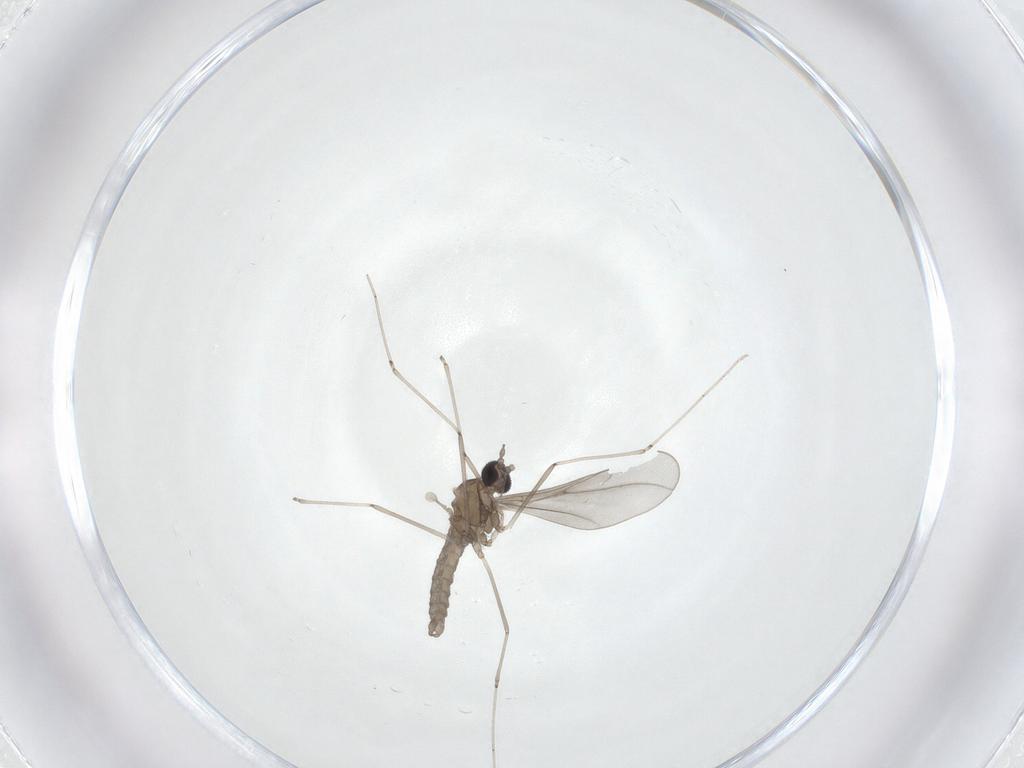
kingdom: Animalia
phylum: Arthropoda
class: Insecta
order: Diptera
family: Cecidomyiidae
